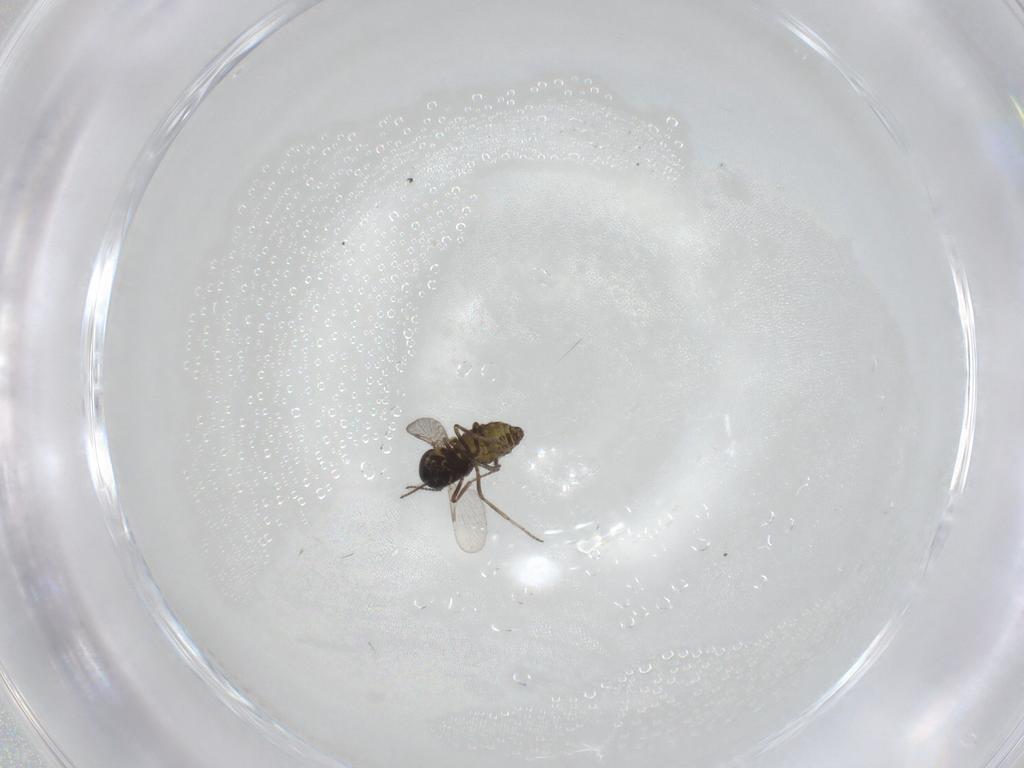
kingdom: Animalia
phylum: Arthropoda
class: Insecta
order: Diptera
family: Ceratopogonidae
